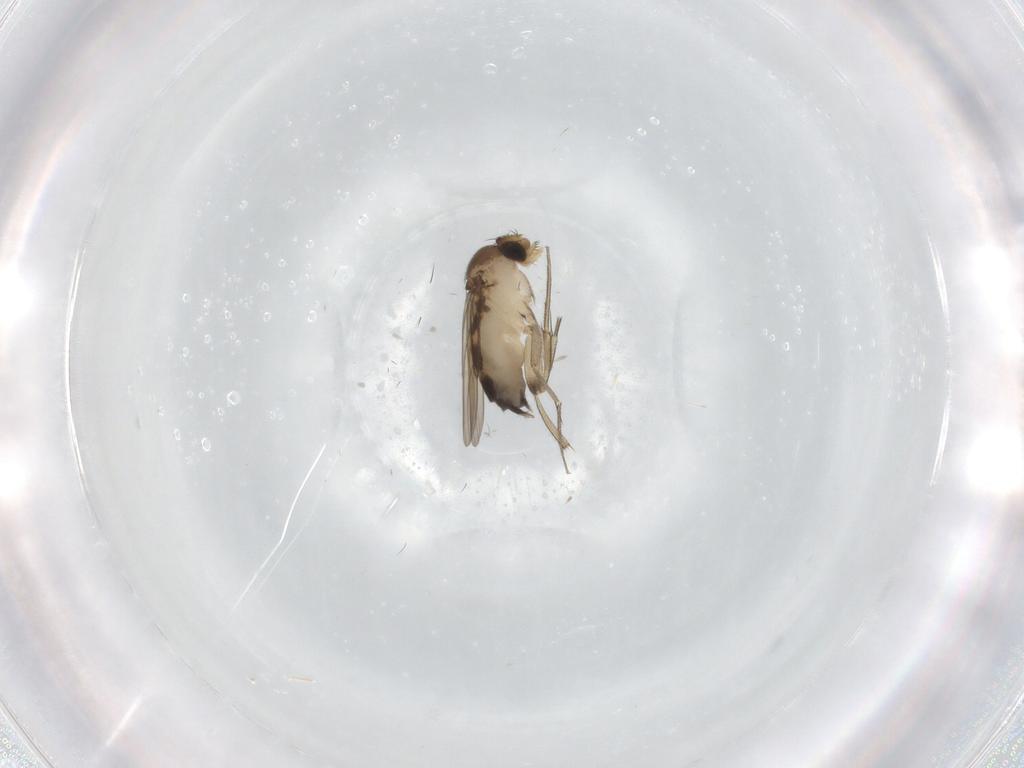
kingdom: Animalia
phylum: Arthropoda
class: Insecta
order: Diptera
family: Phoridae
